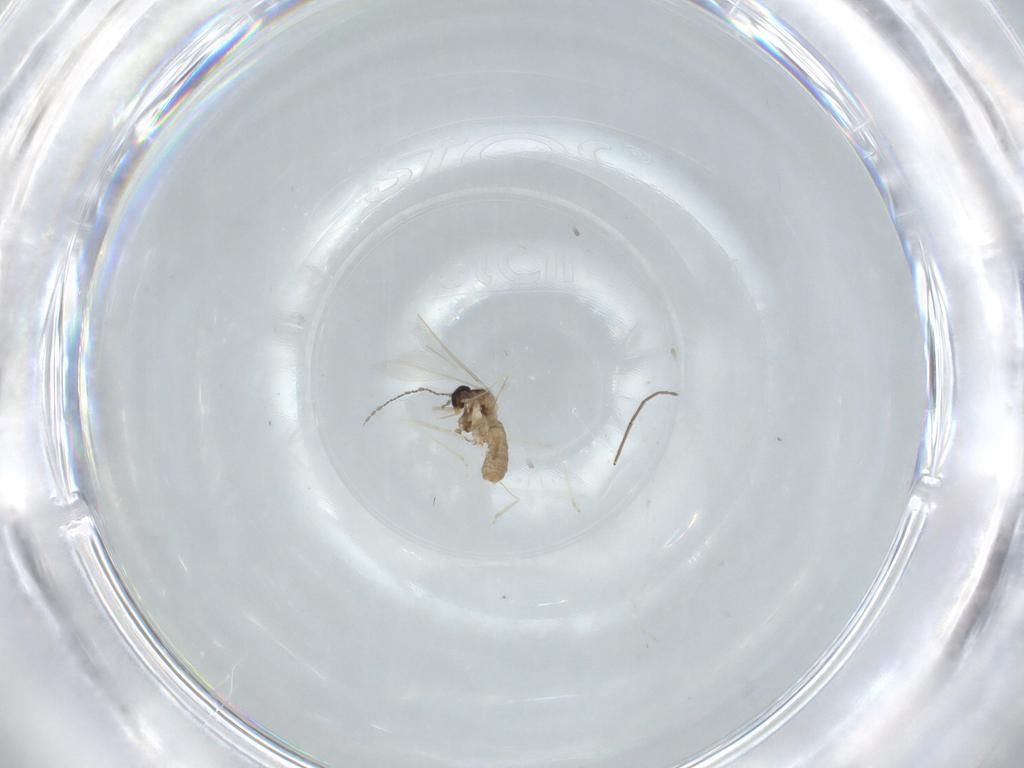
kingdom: Animalia
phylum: Arthropoda
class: Insecta
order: Diptera
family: Cecidomyiidae
